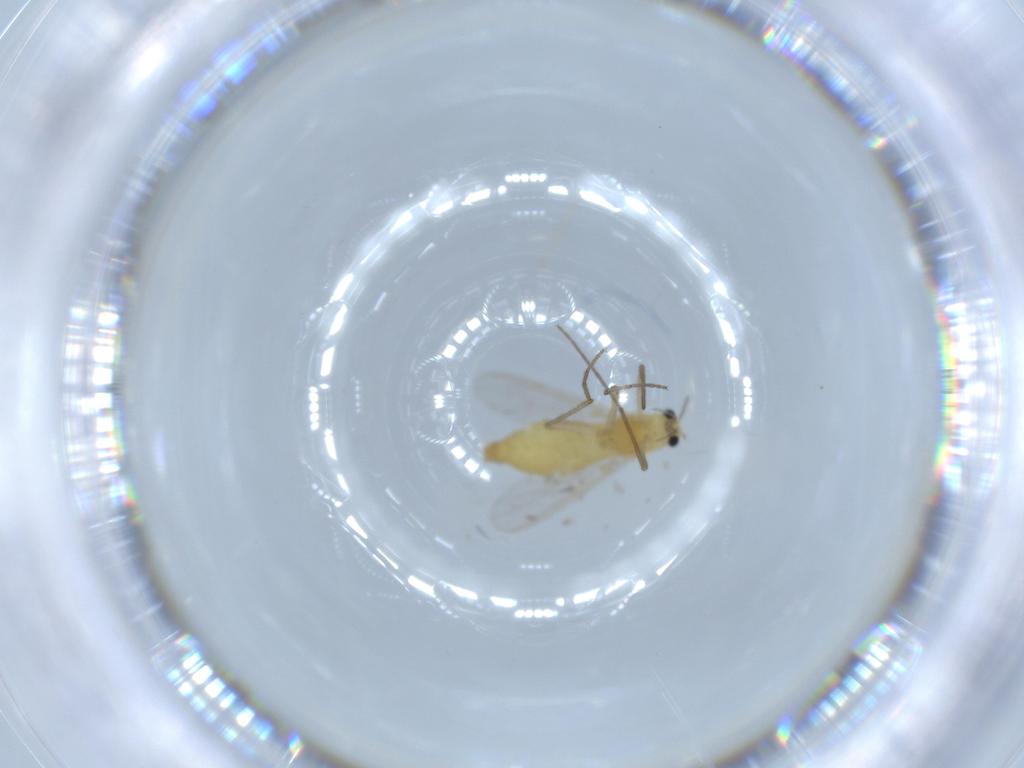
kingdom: Animalia
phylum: Arthropoda
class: Insecta
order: Diptera
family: Chironomidae
